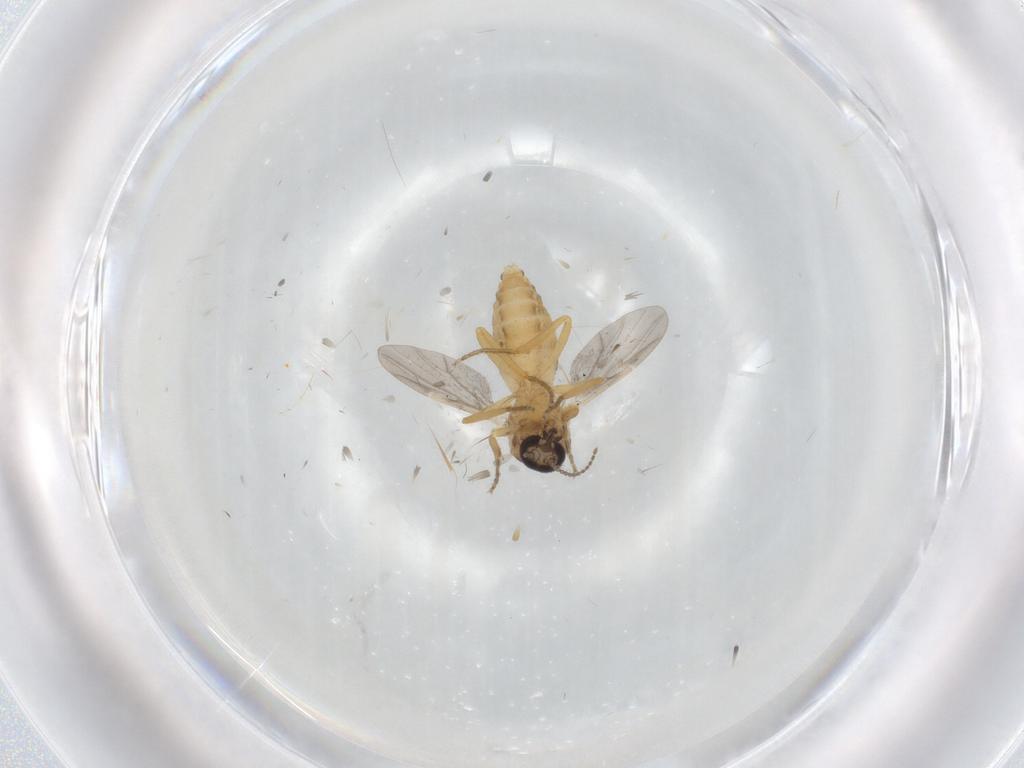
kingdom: Animalia
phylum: Arthropoda
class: Insecta
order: Diptera
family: Ceratopogonidae
